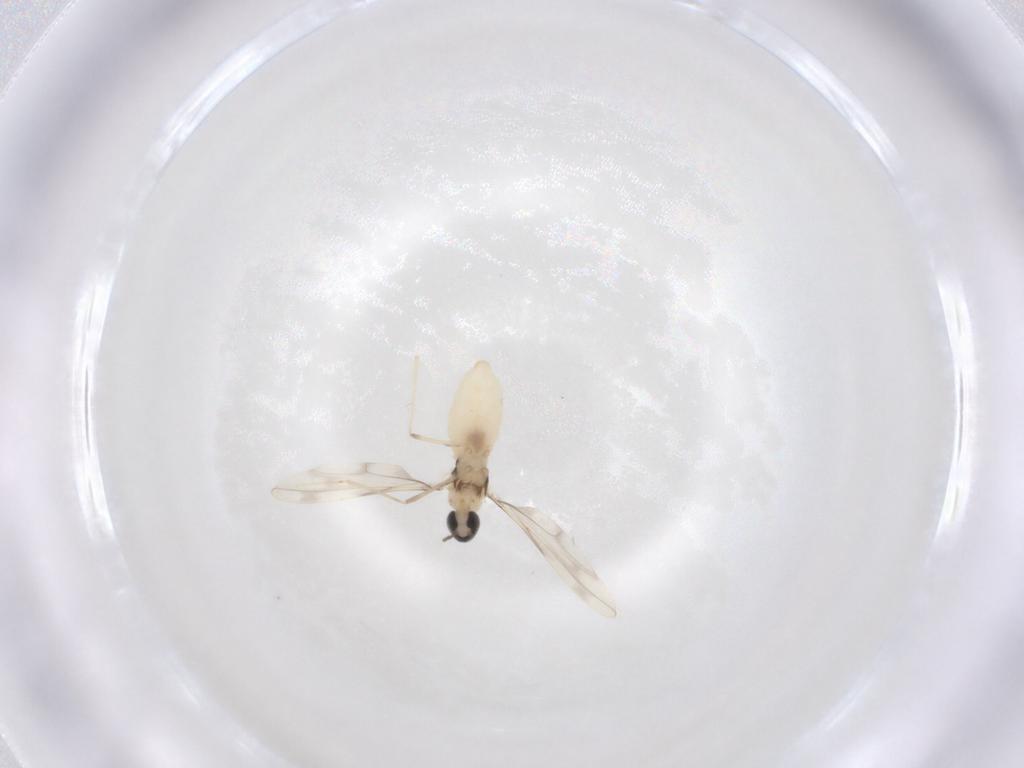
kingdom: Animalia
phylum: Arthropoda
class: Insecta
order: Diptera
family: Cecidomyiidae
